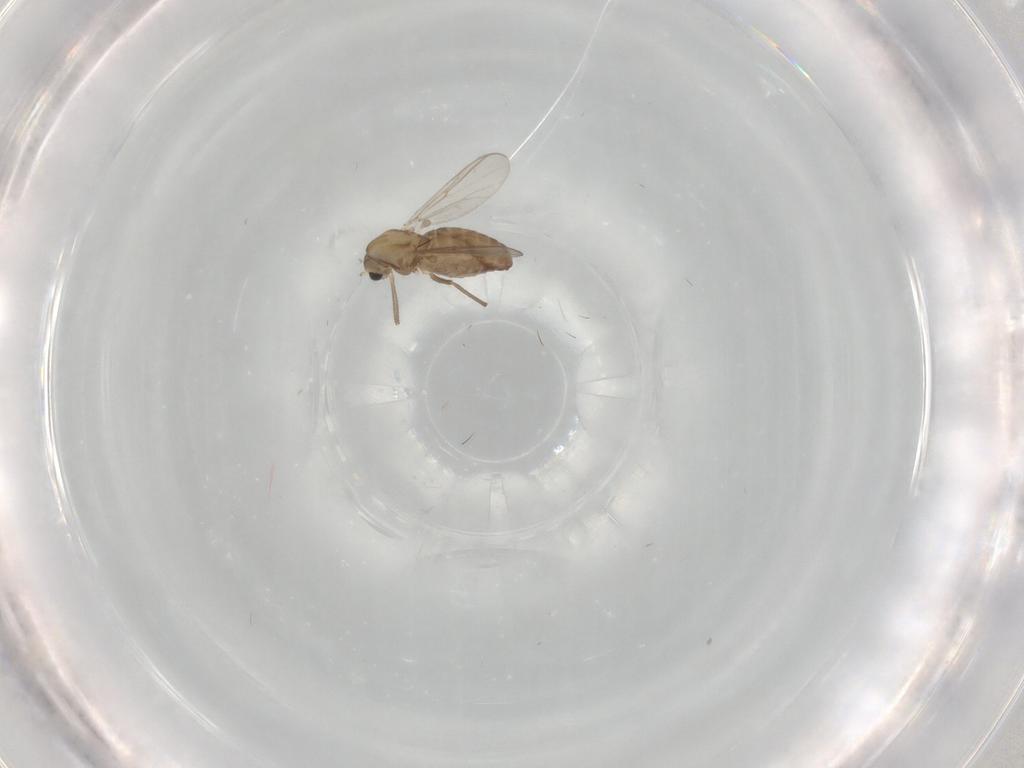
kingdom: Animalia
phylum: Arthropoda
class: Insecta
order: Diptera
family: Chironomidae
